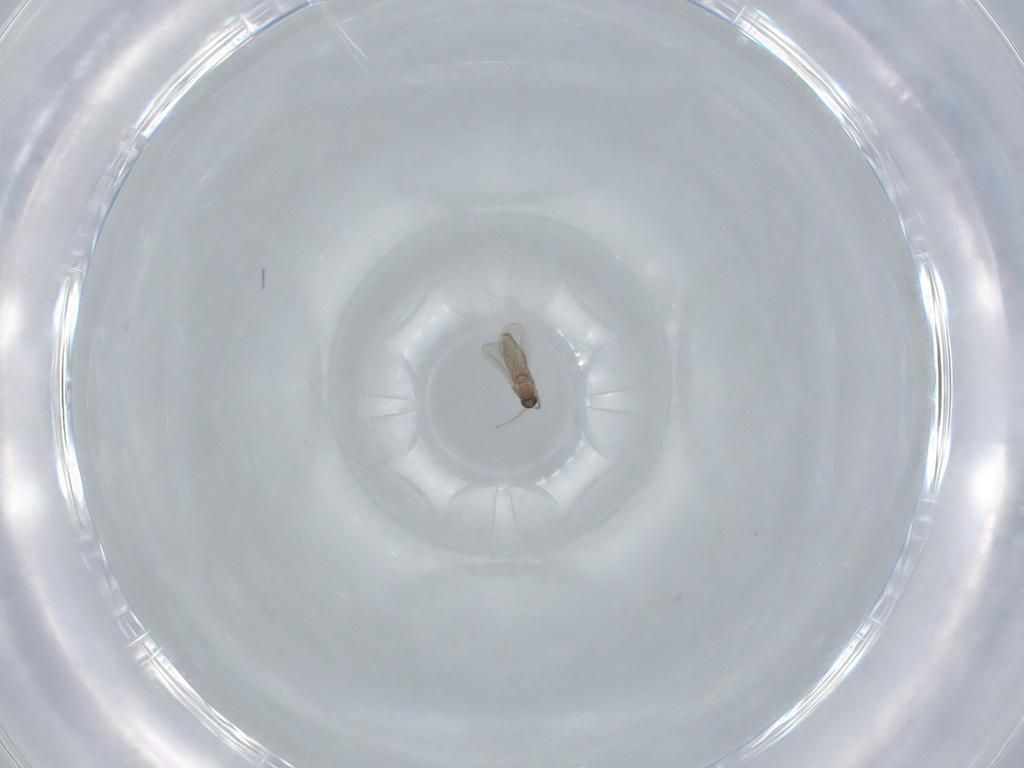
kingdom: Animalia
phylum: Arthropoda
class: Insecta
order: Diptera
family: Cecidomyiidae
